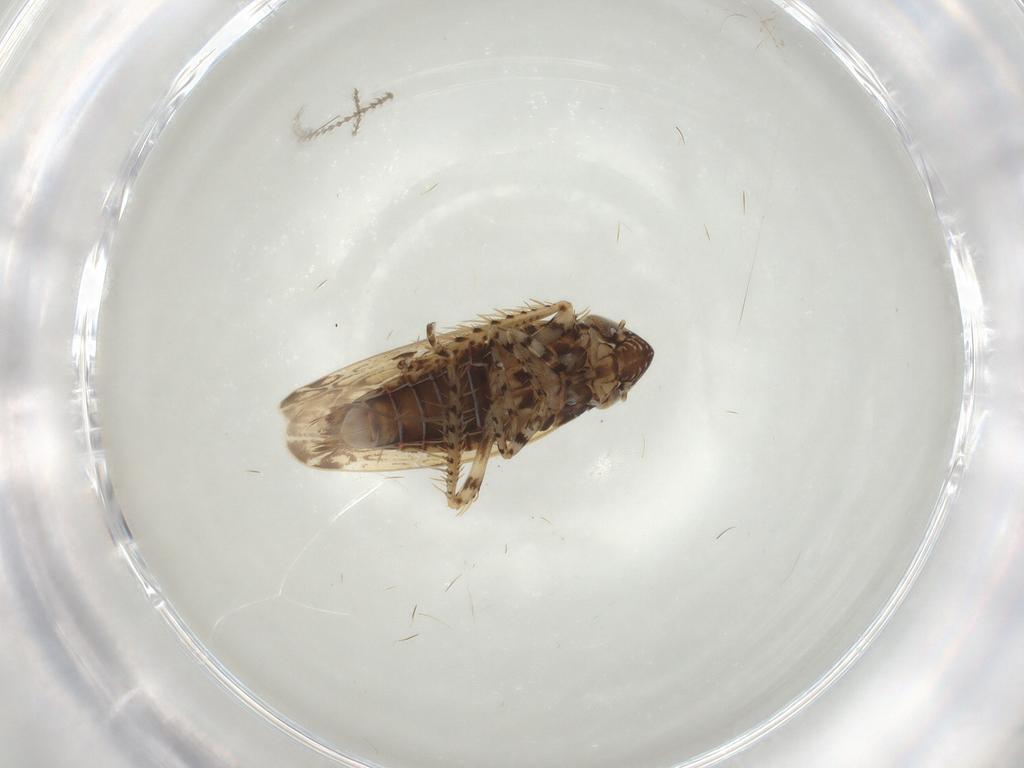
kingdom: Animalia
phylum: Arthropoda
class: Insecta
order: Hemiptera
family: Cicadellidae
